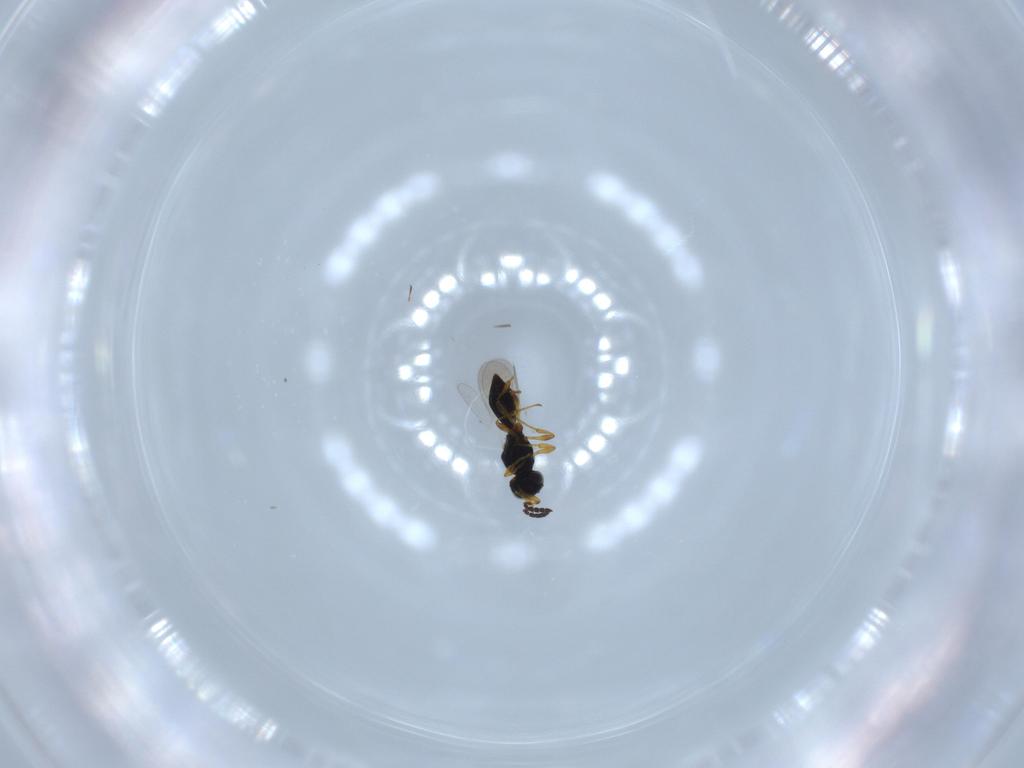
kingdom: Animalia
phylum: Arthropoda
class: Insecta
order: Hymenoptera
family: Platygastridae
